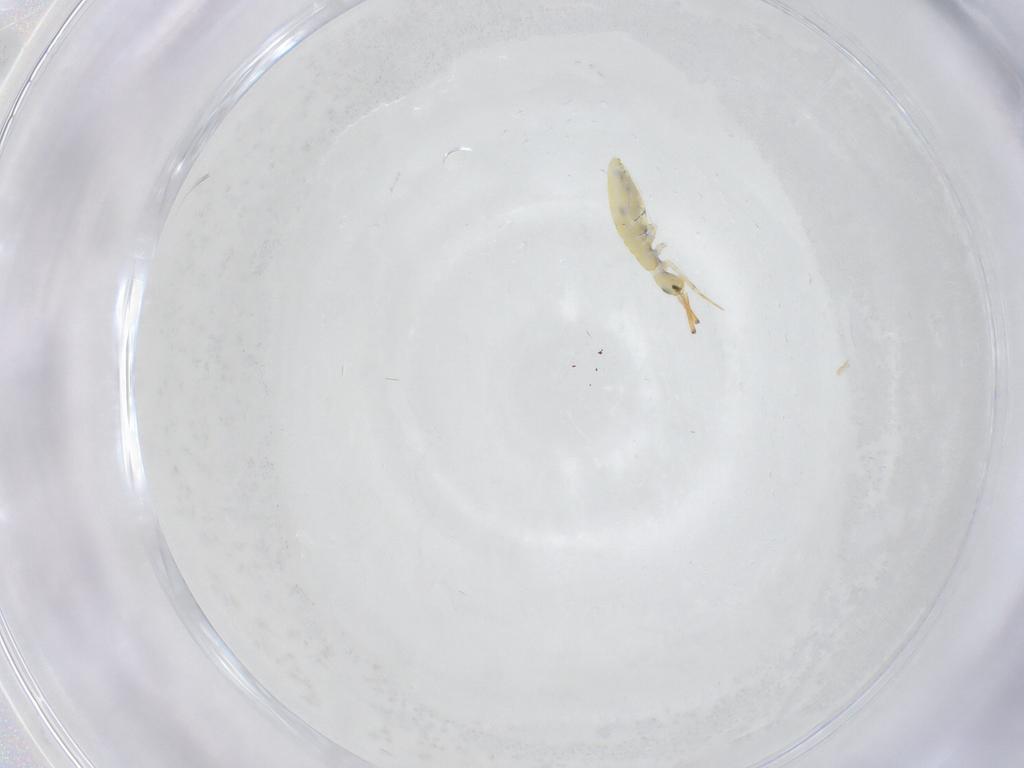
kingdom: Animalia
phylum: Arthropoda
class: Collembola
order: Entomobryomorpha
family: Paronellidae
